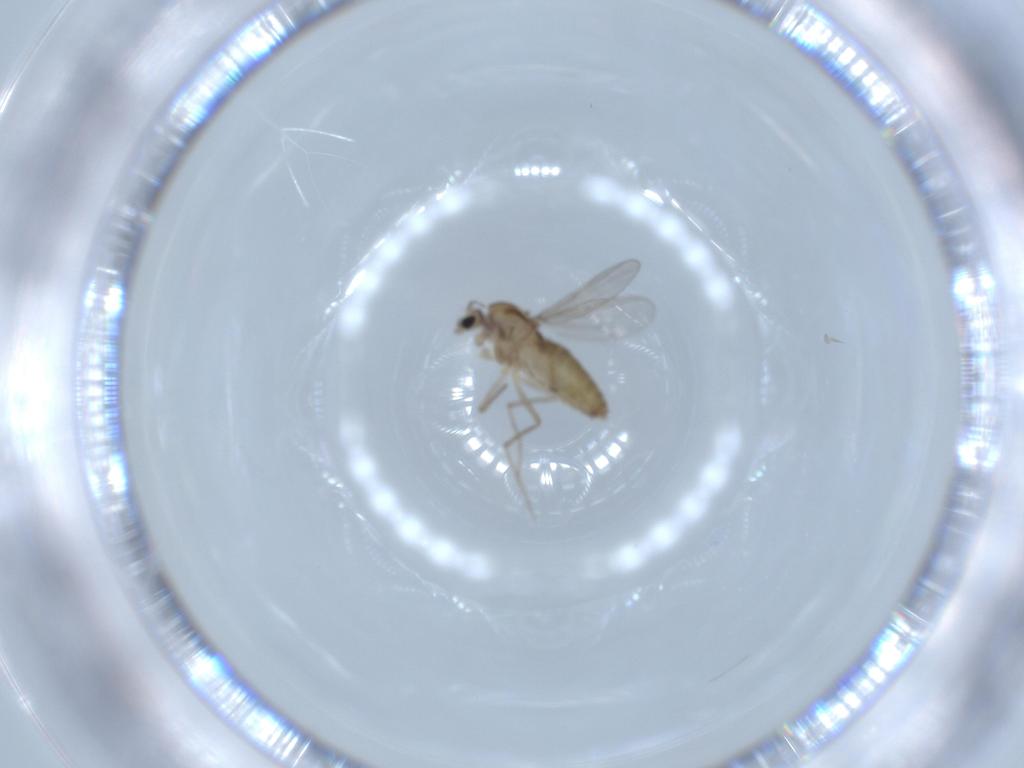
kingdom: Animalia
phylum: Arthropoda
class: Insecta
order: Diptera
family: Chironomidae
